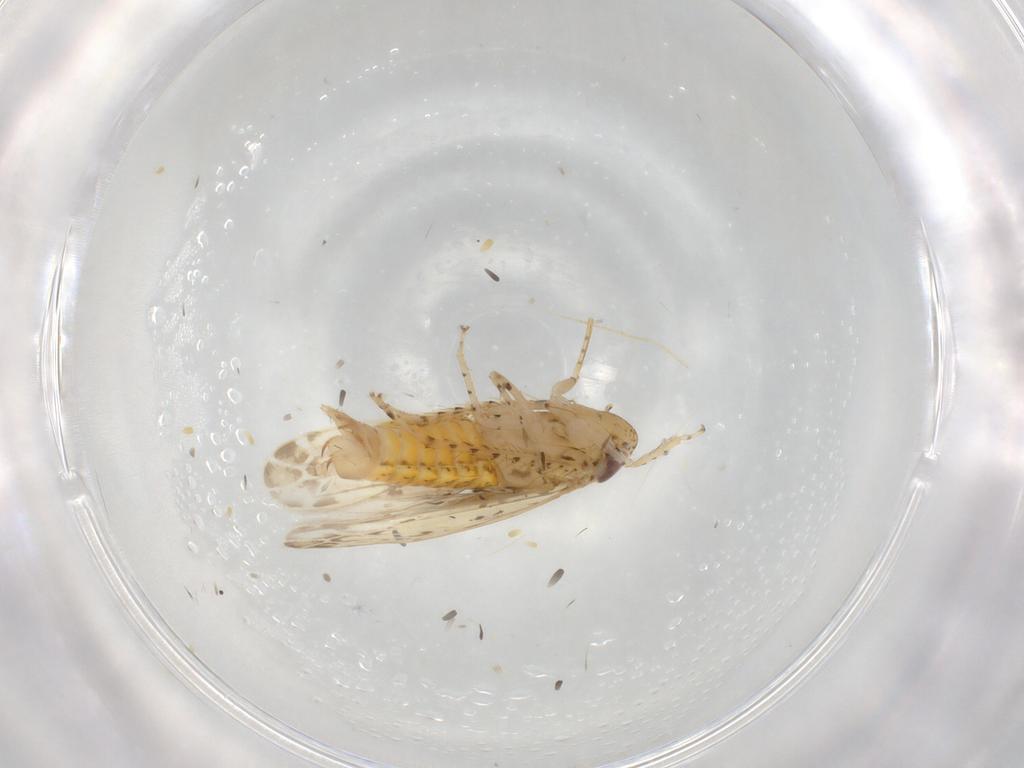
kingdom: Animalia
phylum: Arthropoda
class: Insecta
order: Hemiptera
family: Cicadellidae
